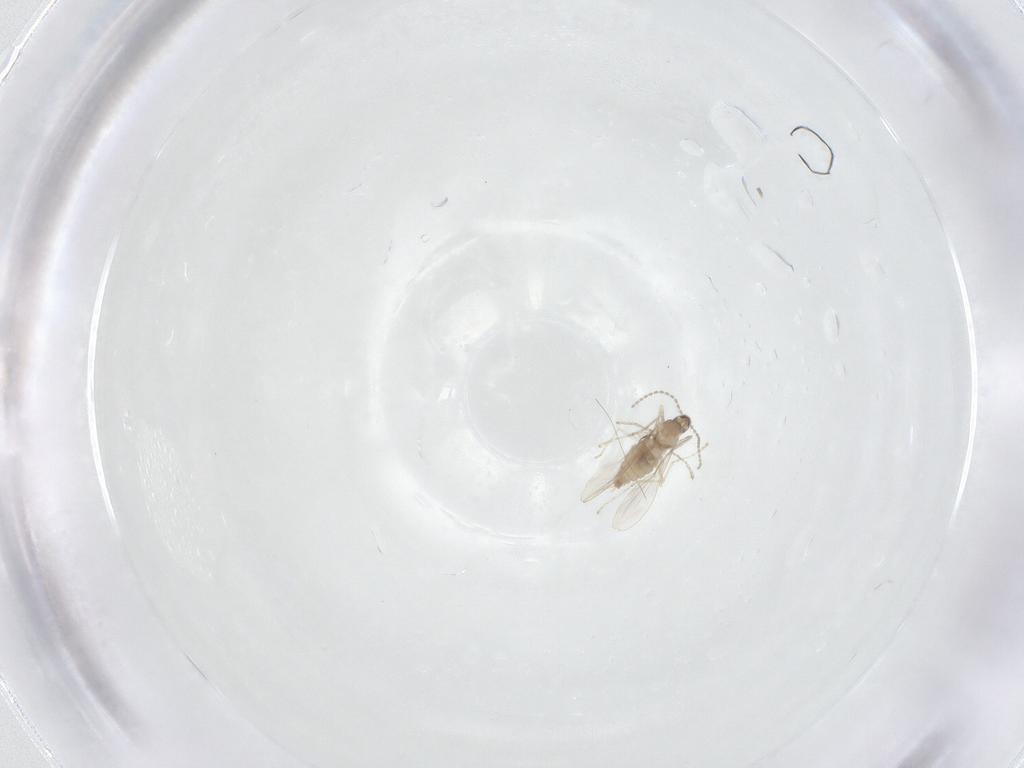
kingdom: Animalia
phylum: Arthropoda
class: Insecta
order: Diptera
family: Cecidomyiidae
